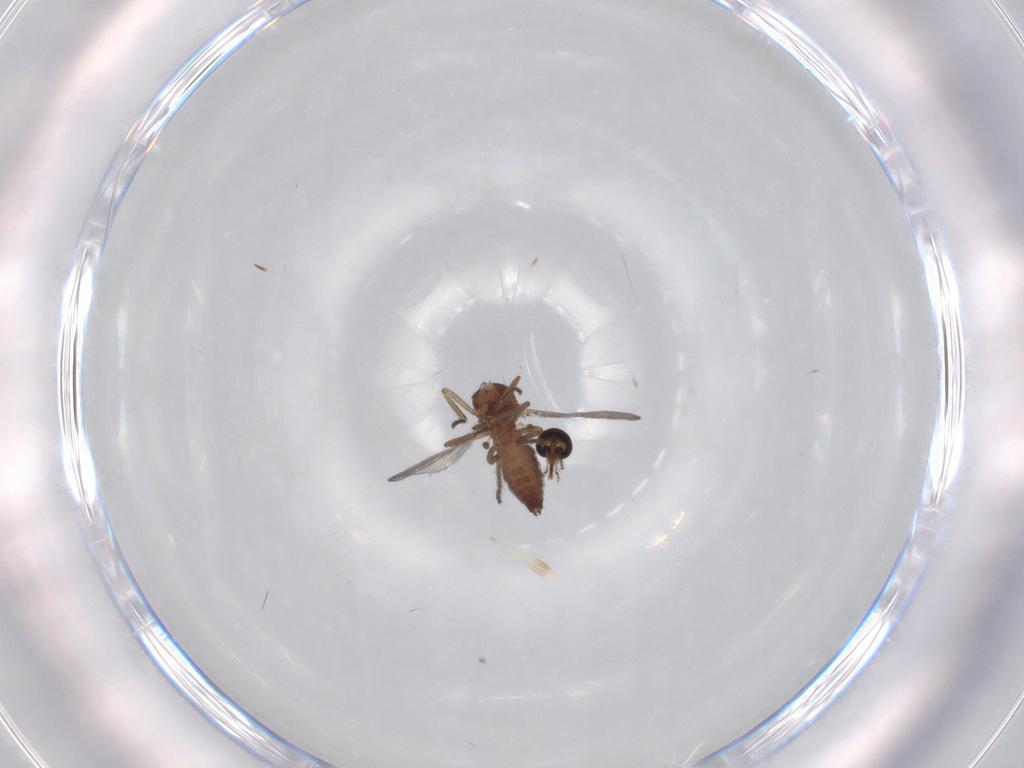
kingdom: Animalia
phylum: Arthropoda
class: Insecta
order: Diptera
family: Ceratopogonidae
